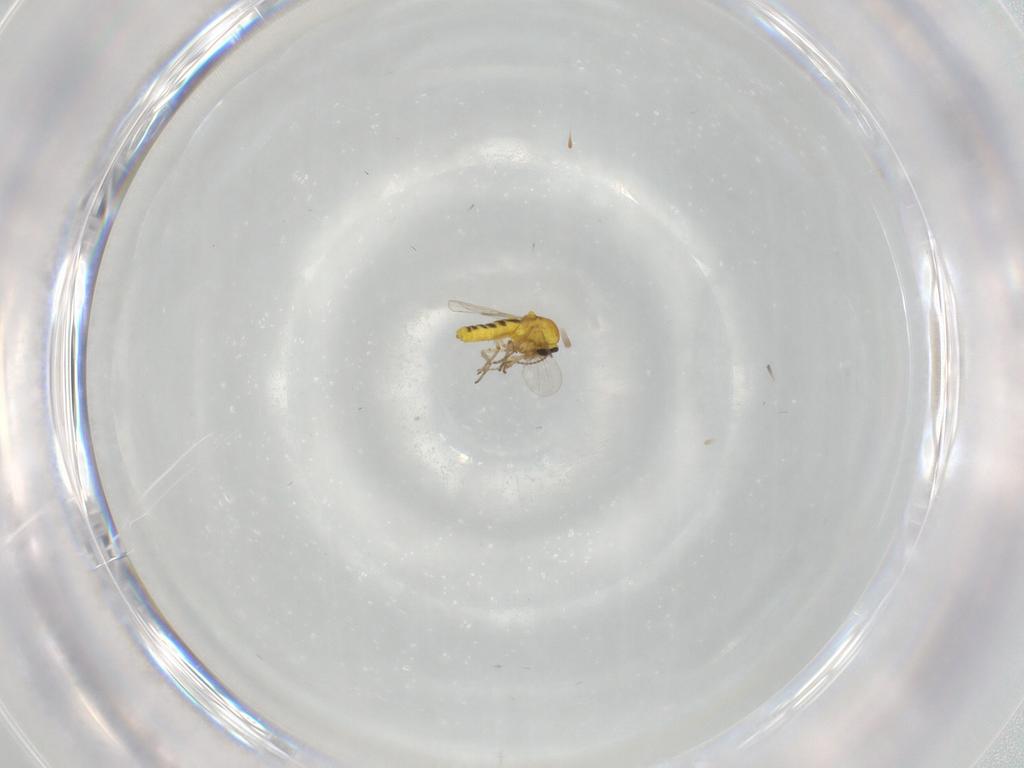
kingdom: Animalia
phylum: Arthropoda
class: Insecta
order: Diptera
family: Ceratopogonidae
